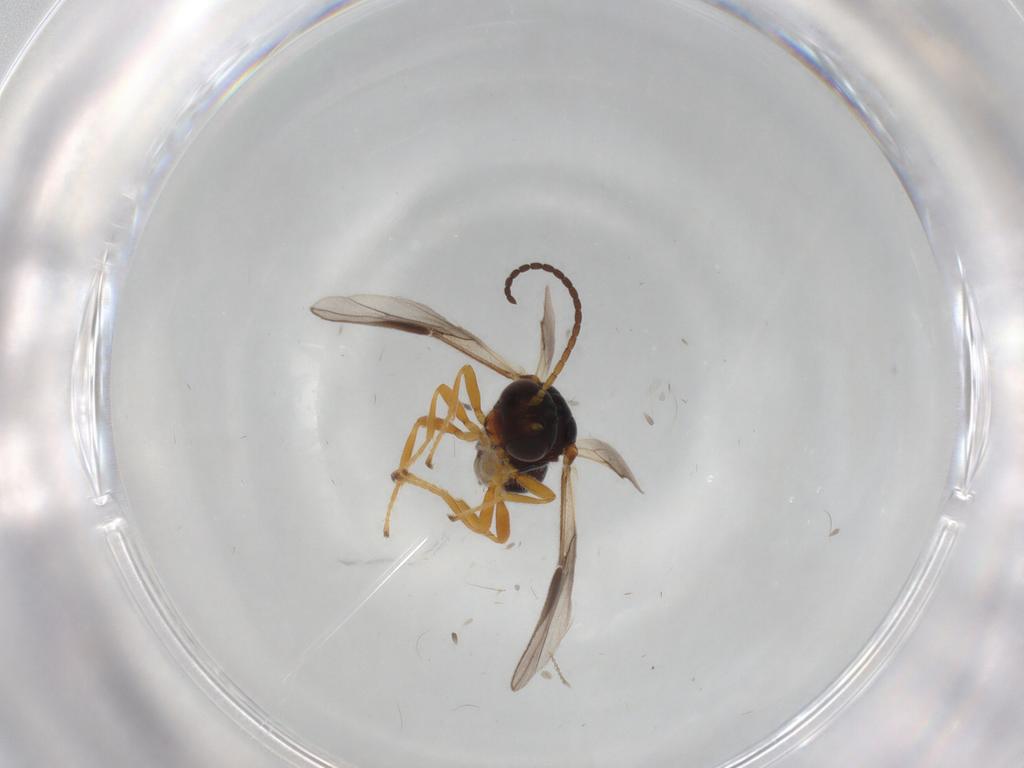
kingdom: Animalia
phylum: Arthropoda
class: Insecta
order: Hymenoptera
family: Braconidae
